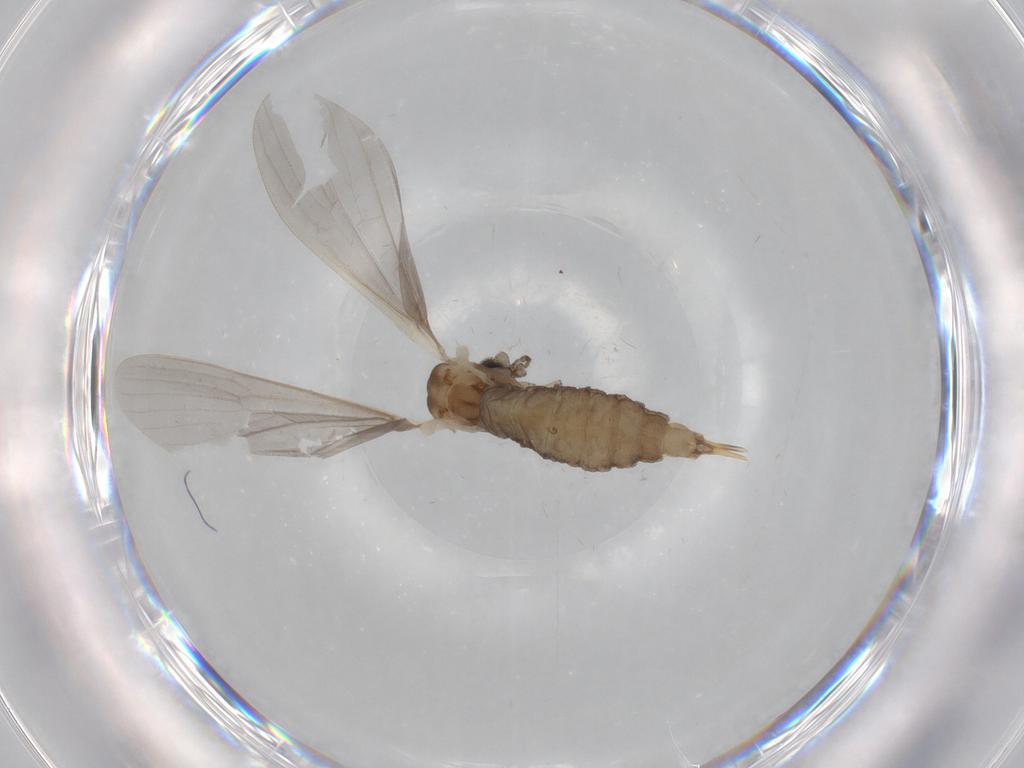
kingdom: Animalia
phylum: Arthropoda
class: Insecta
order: Diptera
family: Limoniidae
